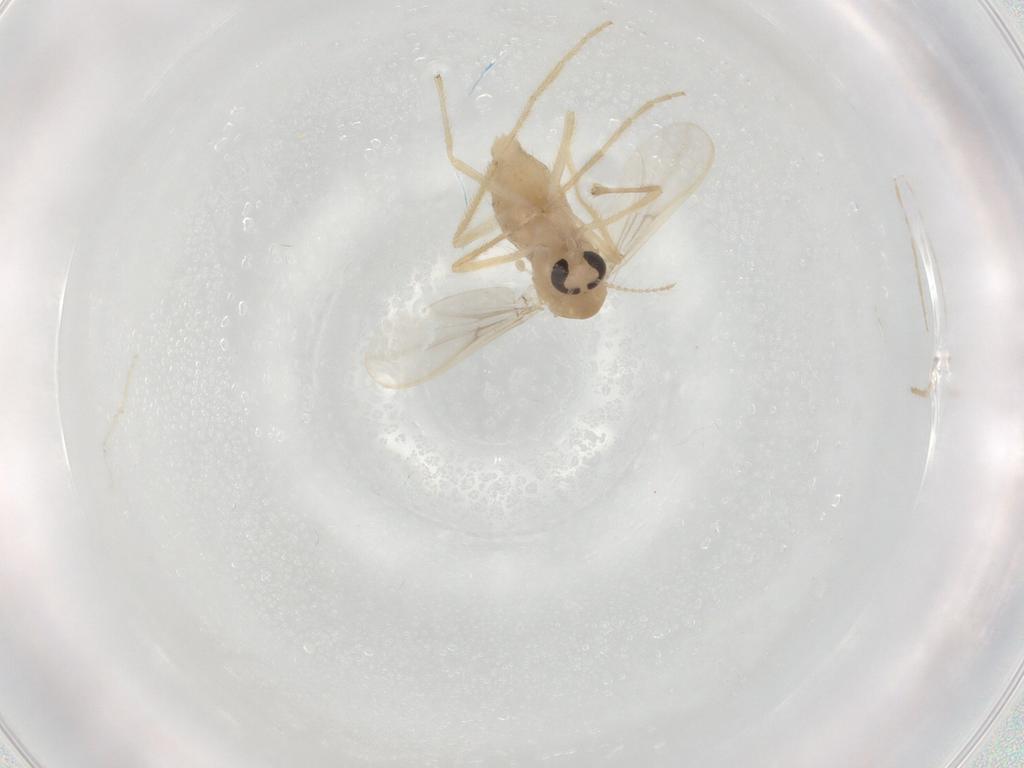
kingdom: Animalia
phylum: Arthropoda
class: Insecta
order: Diptera
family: Chironomidae
